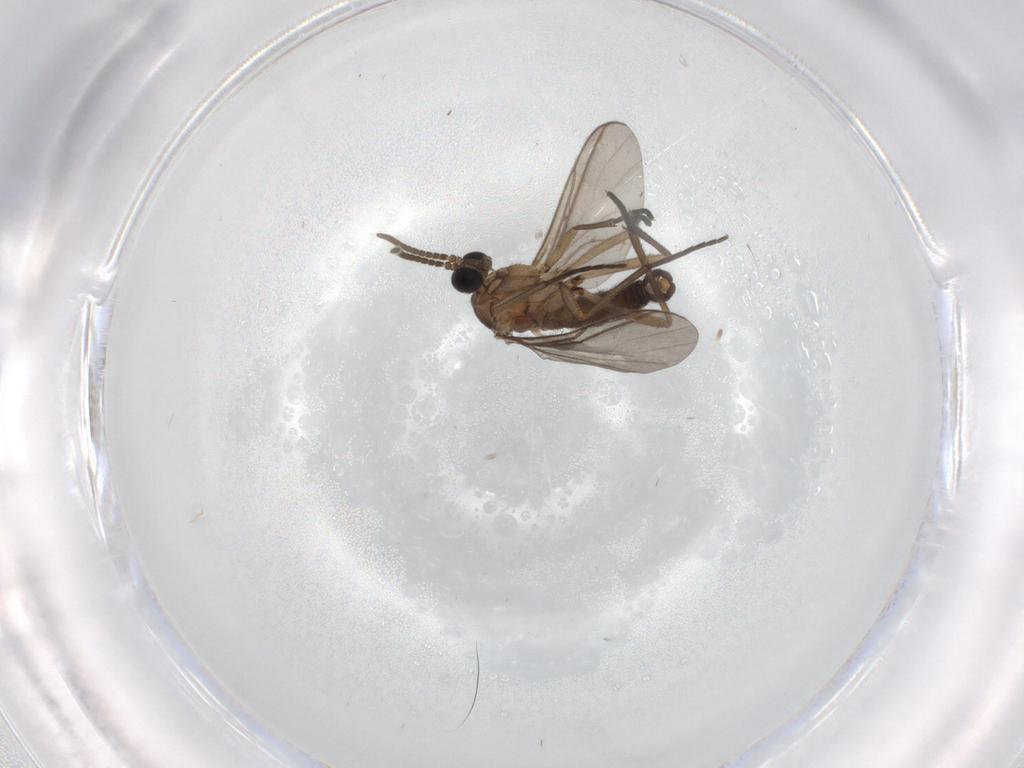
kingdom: Animalia
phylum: Arthropoda
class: Insecta
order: Diptera
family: Limoniidae
